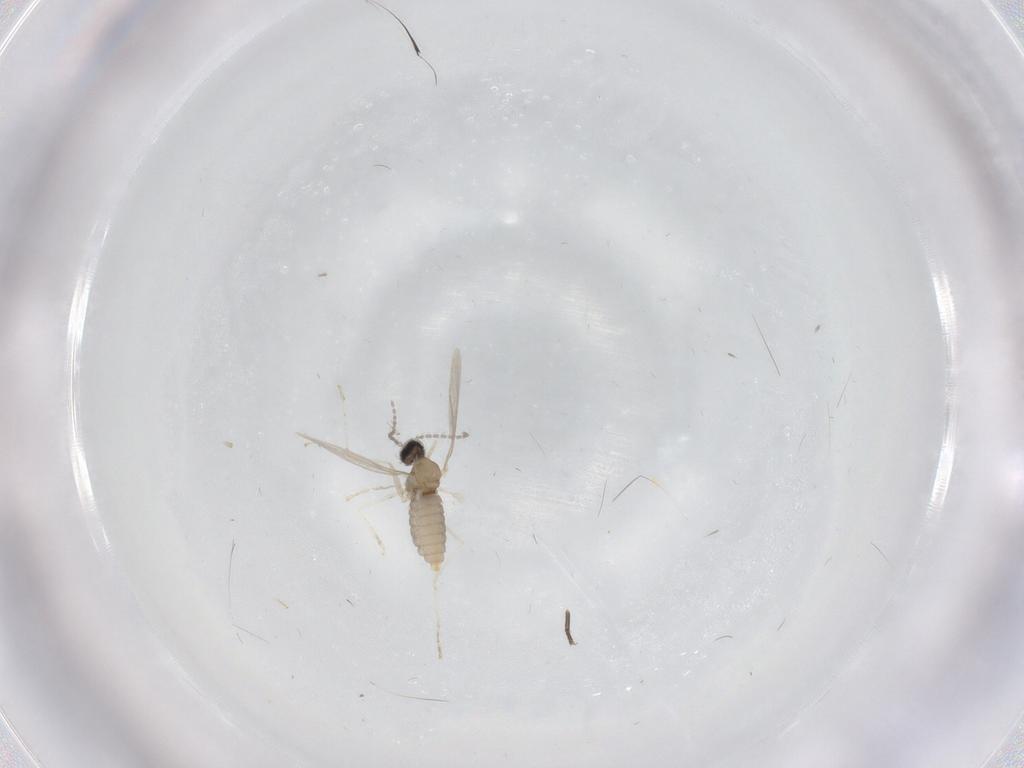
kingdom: Animalia
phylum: Arthropoda
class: Insecta
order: Diptera
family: Cecidomyiidae
